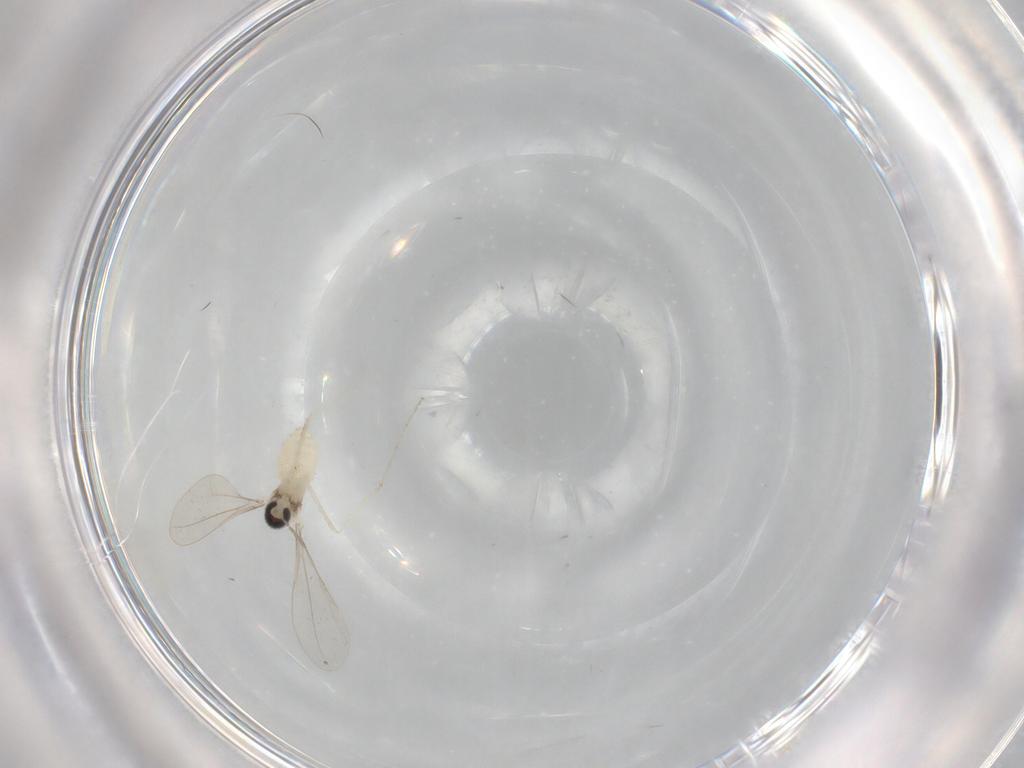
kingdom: Animalia
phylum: Arthropoda
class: Insecta
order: Diptera
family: Cecidomyiidae
